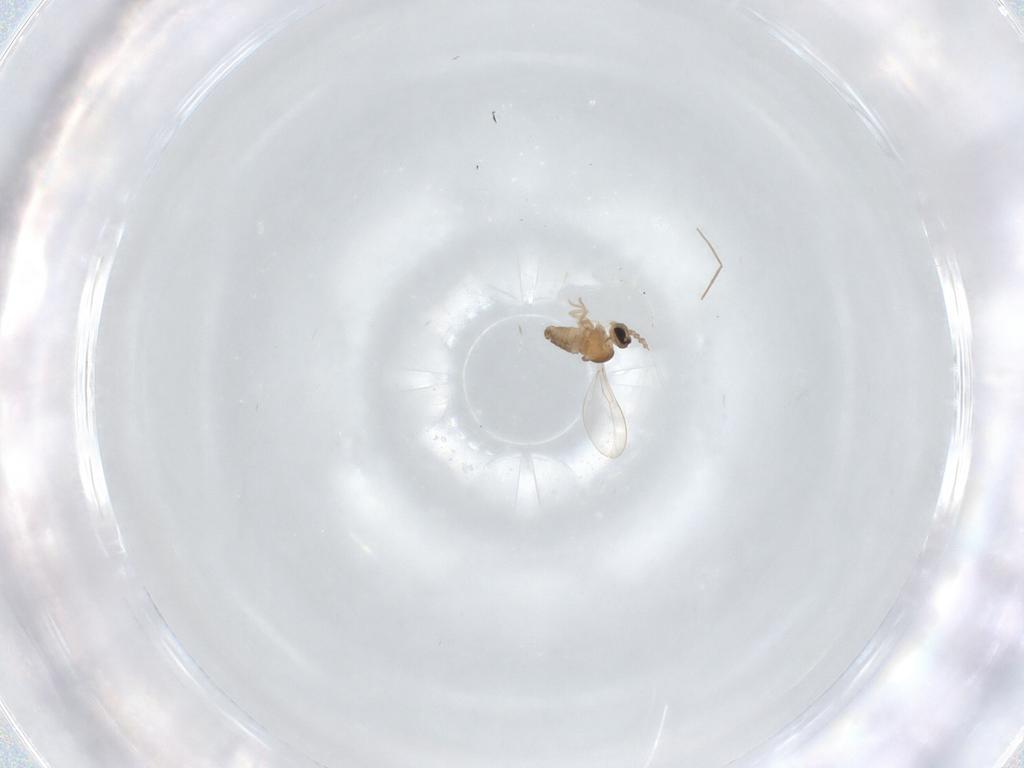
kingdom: Animalia
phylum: Arthropoda
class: Insecta
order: Diptera
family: Cecidomyiidae
